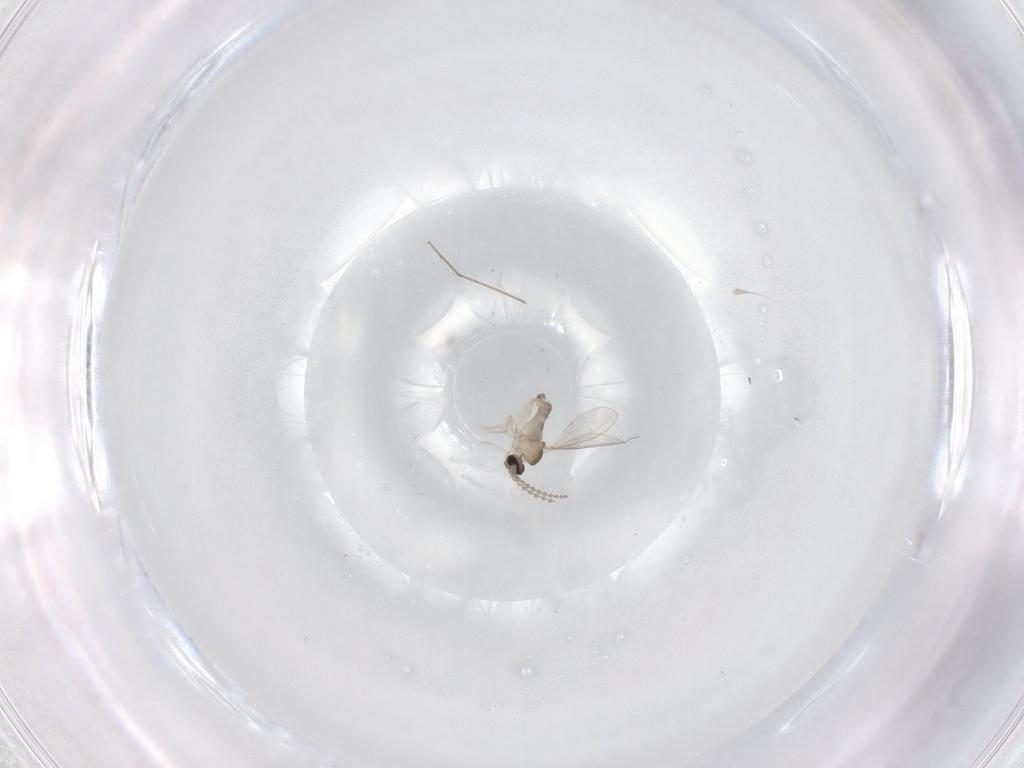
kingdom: Animalia
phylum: Arthropoda
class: Insecta
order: Diptera
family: Cecidomyiidae
